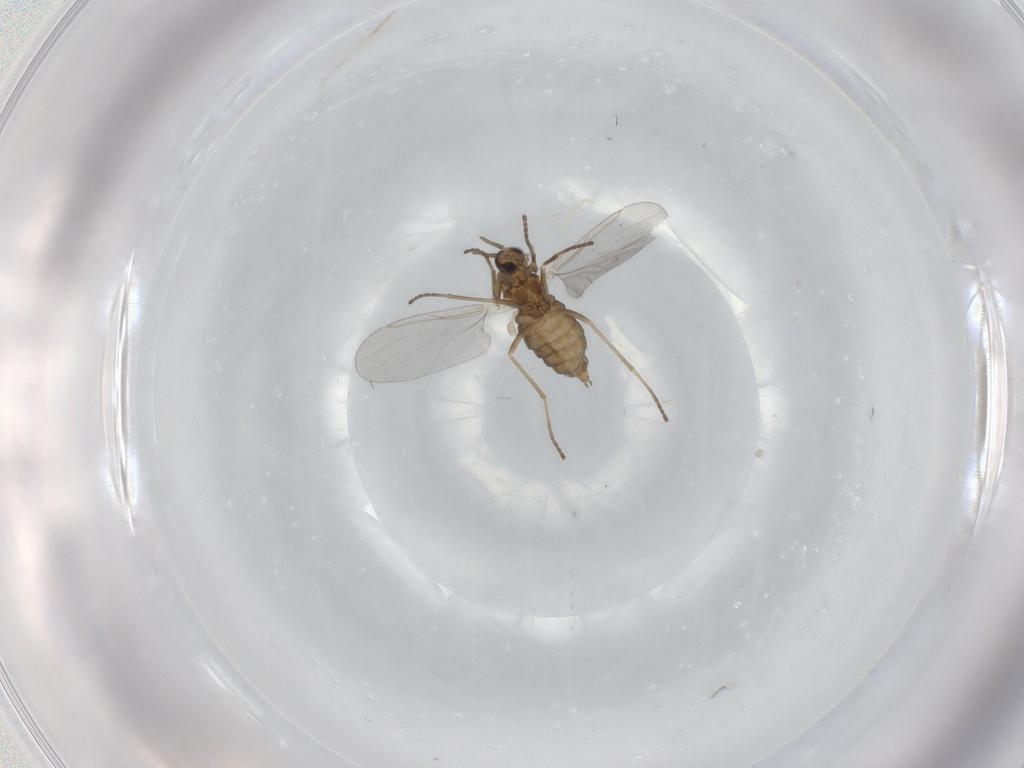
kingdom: Animalia
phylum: Arthropoda
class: Insecta
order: Diptera
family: Cecidomyiidae
